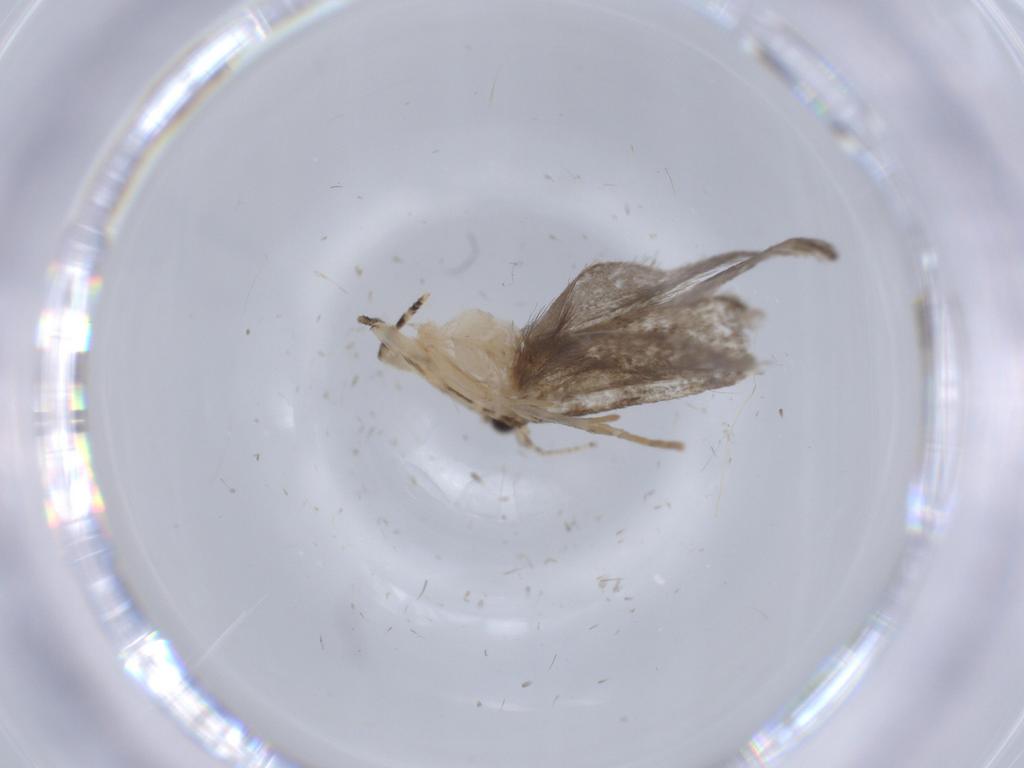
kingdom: Animalia
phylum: Arthropoda
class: Insecta
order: Lepidoptera
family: Tineidae
